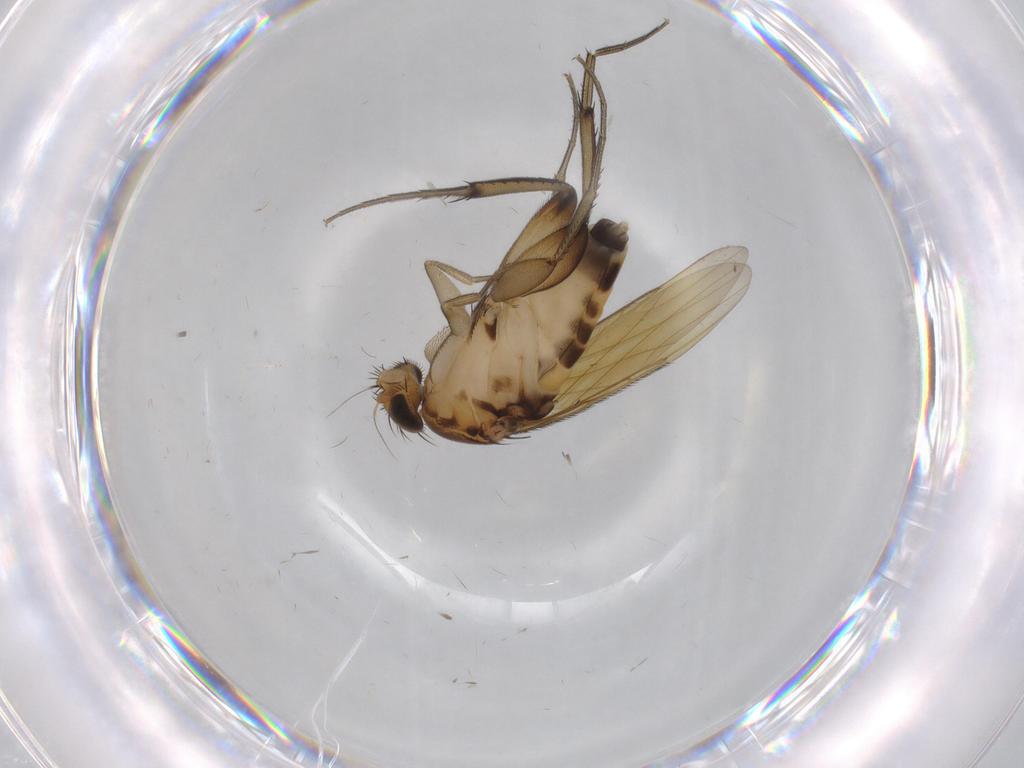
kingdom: Animalia
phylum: Arthropoda
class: Insecta
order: Diptera
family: Phoridae
